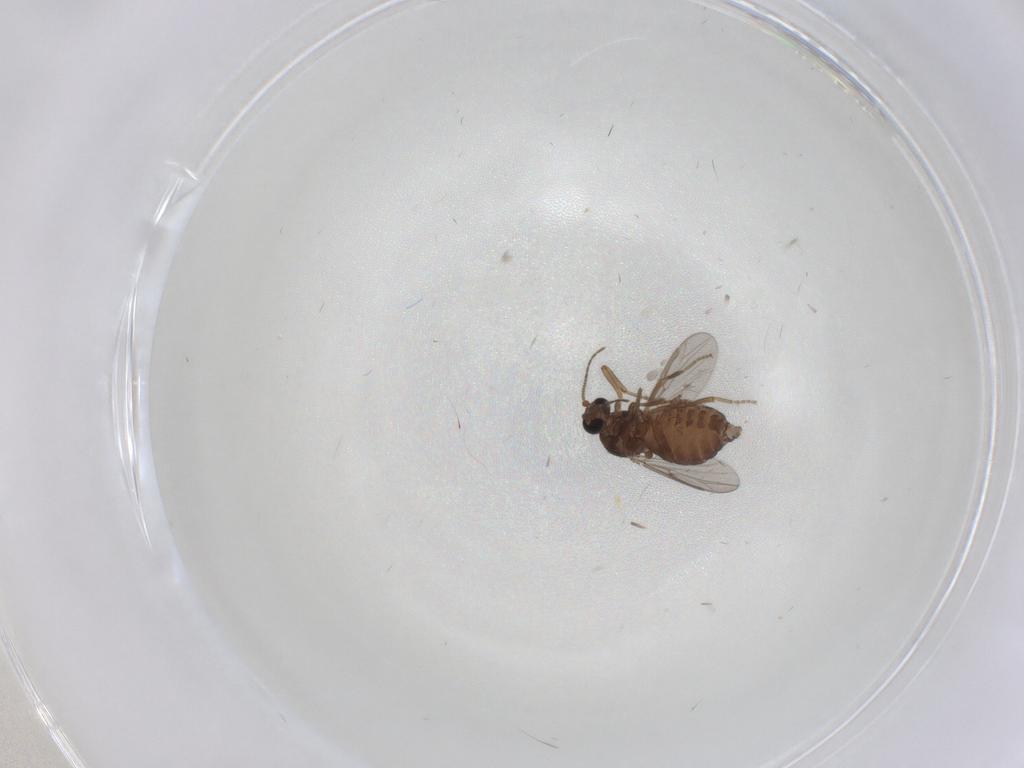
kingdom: Animalia
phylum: Arthropoda
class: Insecta
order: Diptera
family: Ceratopogonidae
